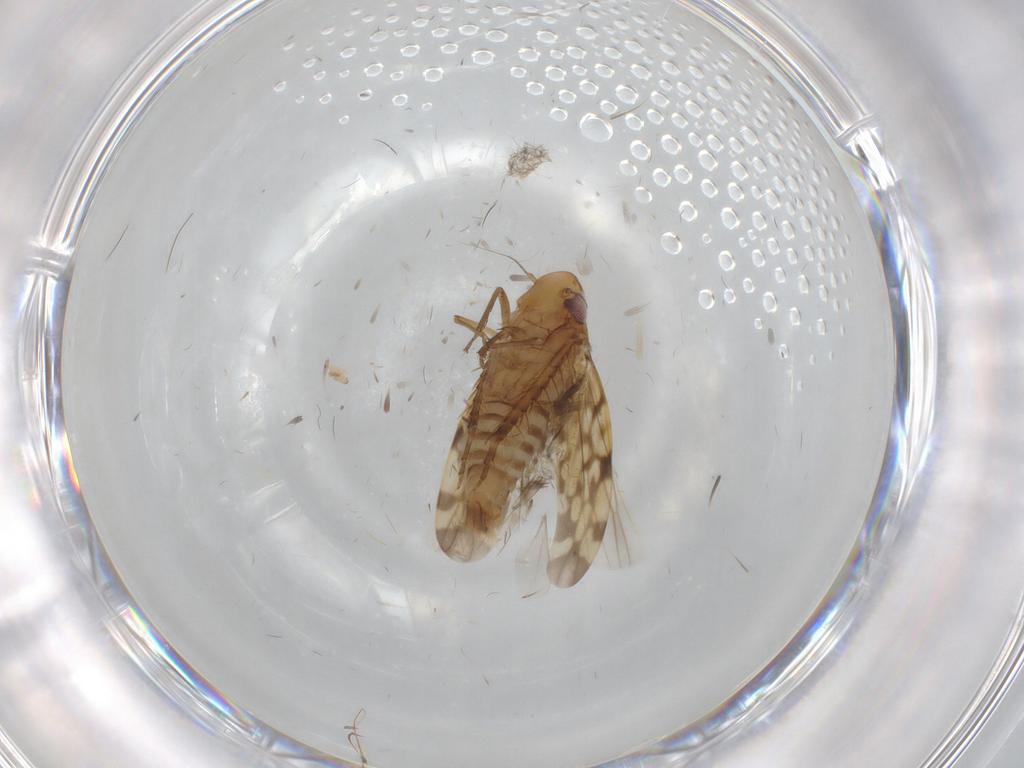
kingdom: Animalia
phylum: Arthropoda
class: Insecta
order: Hemiptera
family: Cicadellidae
